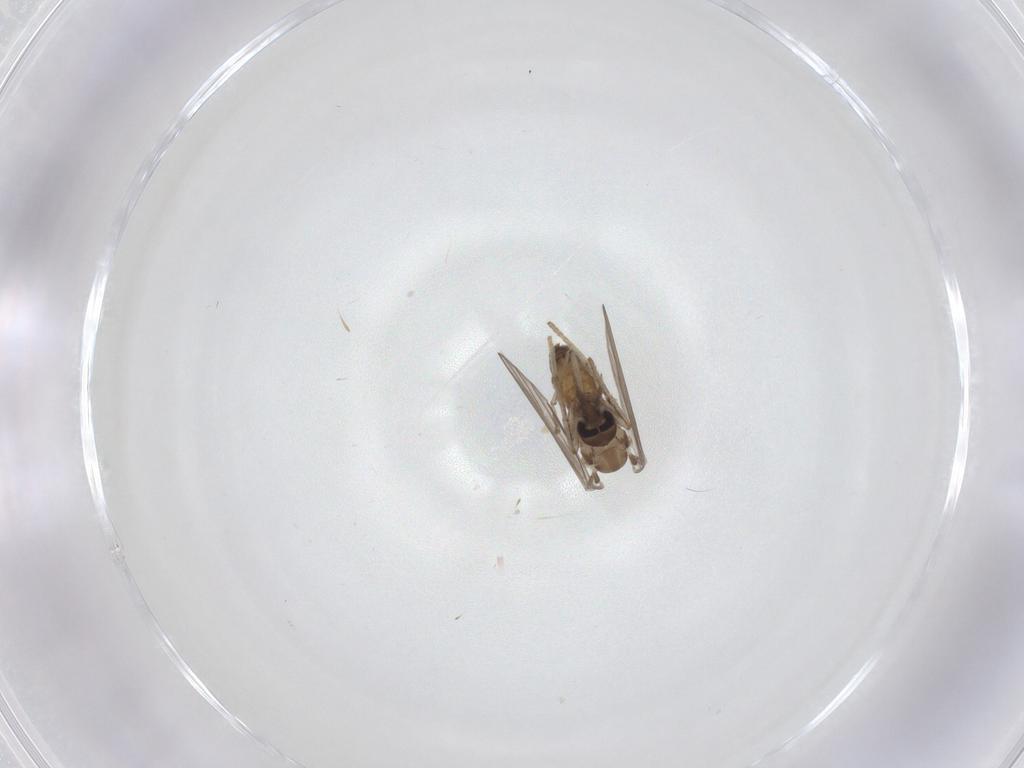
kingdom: Animalia
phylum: Arthropoda
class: Insecta
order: Diptera
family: Psychodidae
